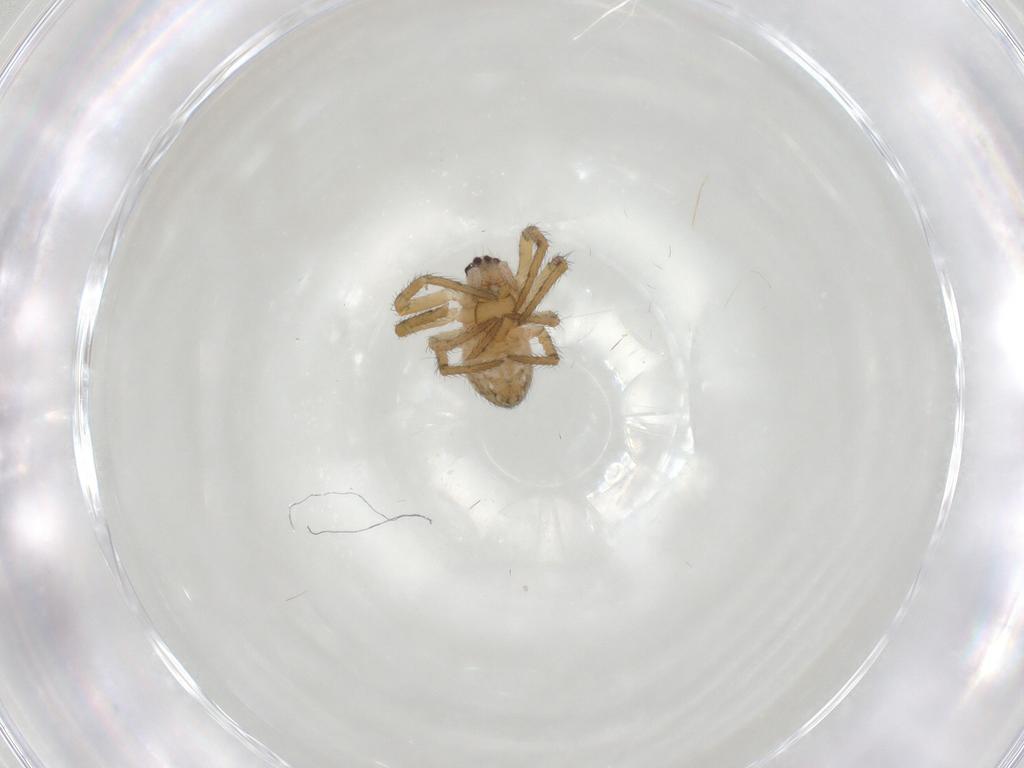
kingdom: Animalia
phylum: Arthropoda
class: Arachnida
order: Araneae
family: Araneidae
